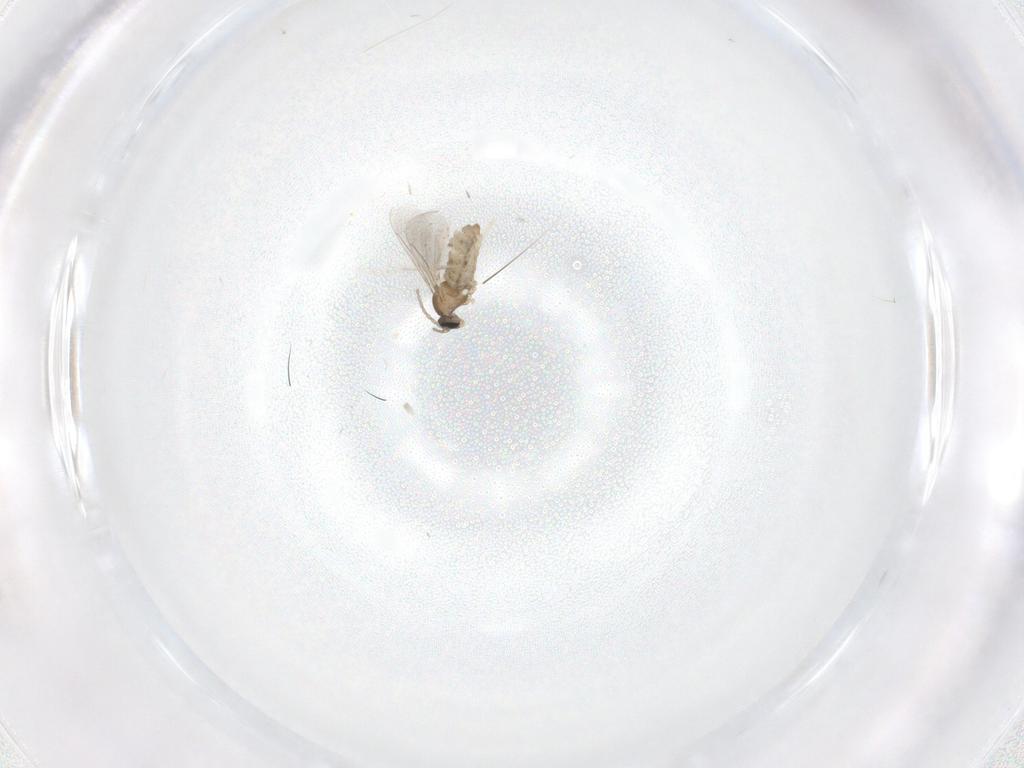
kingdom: Animalia
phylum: Arthropoda
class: Insecta
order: Diptera
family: Cecidomyiidae
